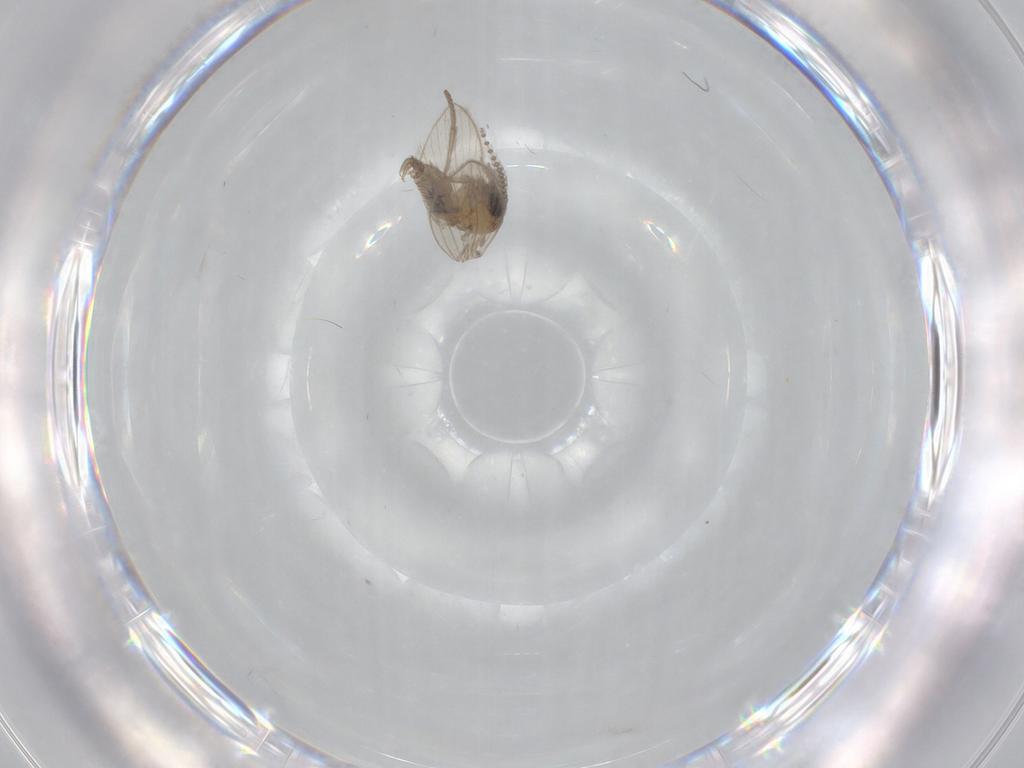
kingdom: Animalia
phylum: Arthropoda
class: Insecta
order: Diptera
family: Psychodidae
